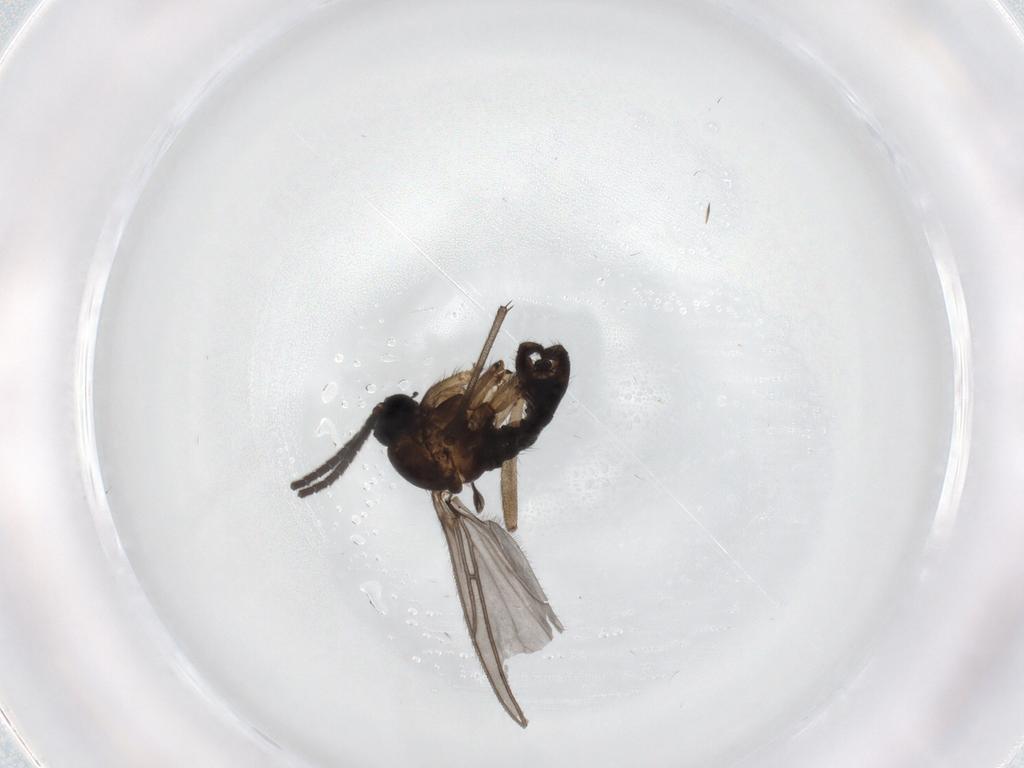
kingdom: Animalia
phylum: Arthropoda
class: Insecta
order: Diptera
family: Sciaridae
